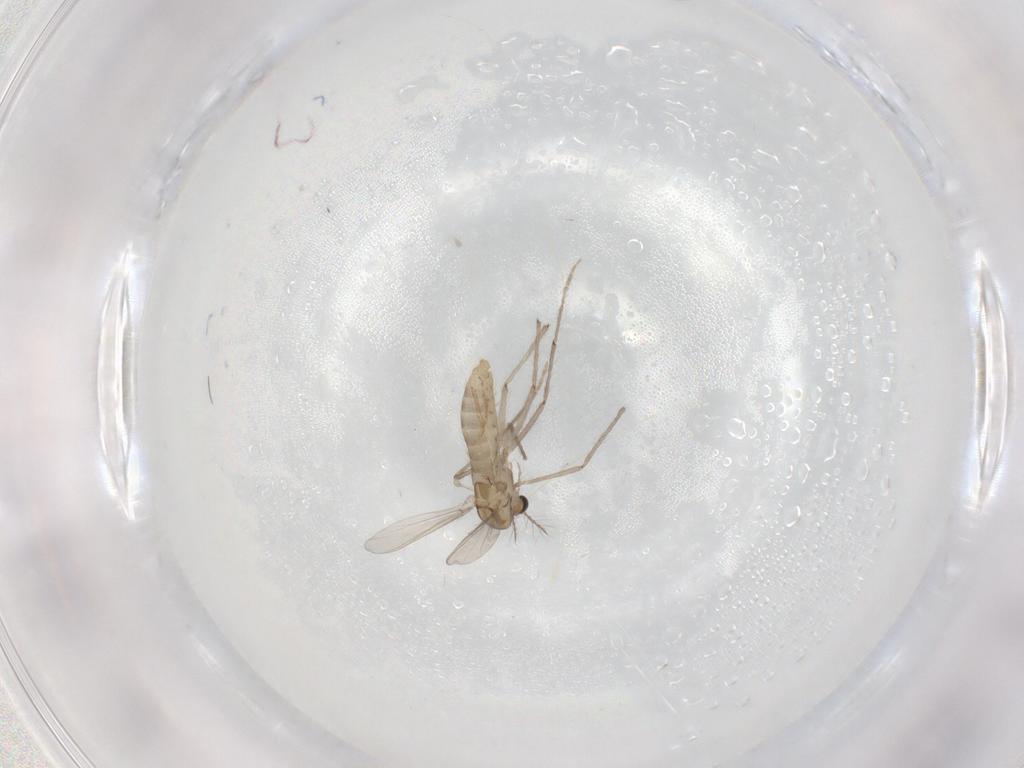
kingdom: Animalia
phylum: Arthropoda
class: Insecta
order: Diptera
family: Chironomidae
